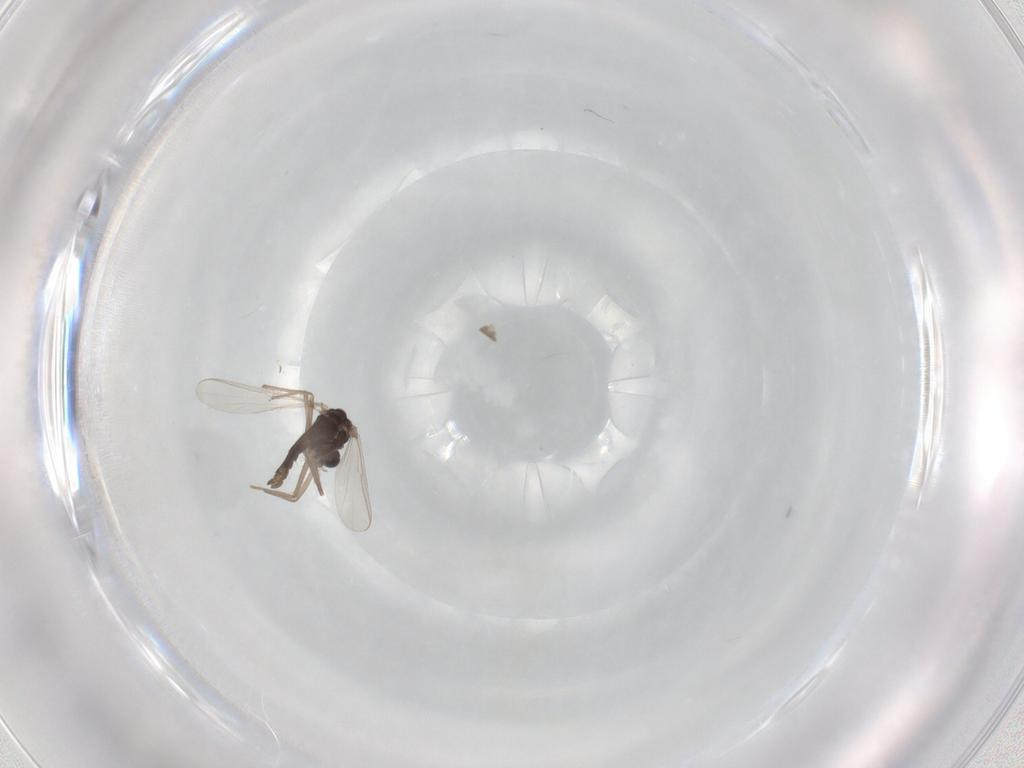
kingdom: Animalia
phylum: Arthropoda
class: Insecta
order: Diptera
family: Chironomidae
